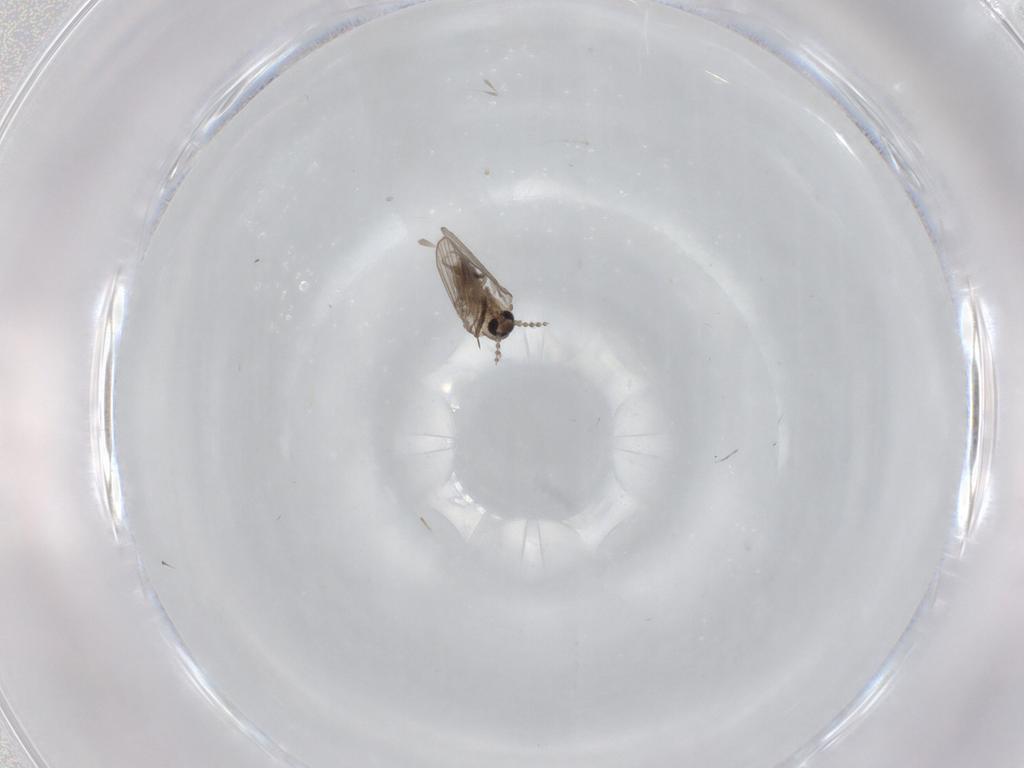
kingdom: Animalia
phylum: Arthropoda
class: Insecta
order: Diptera
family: Psychodidae
